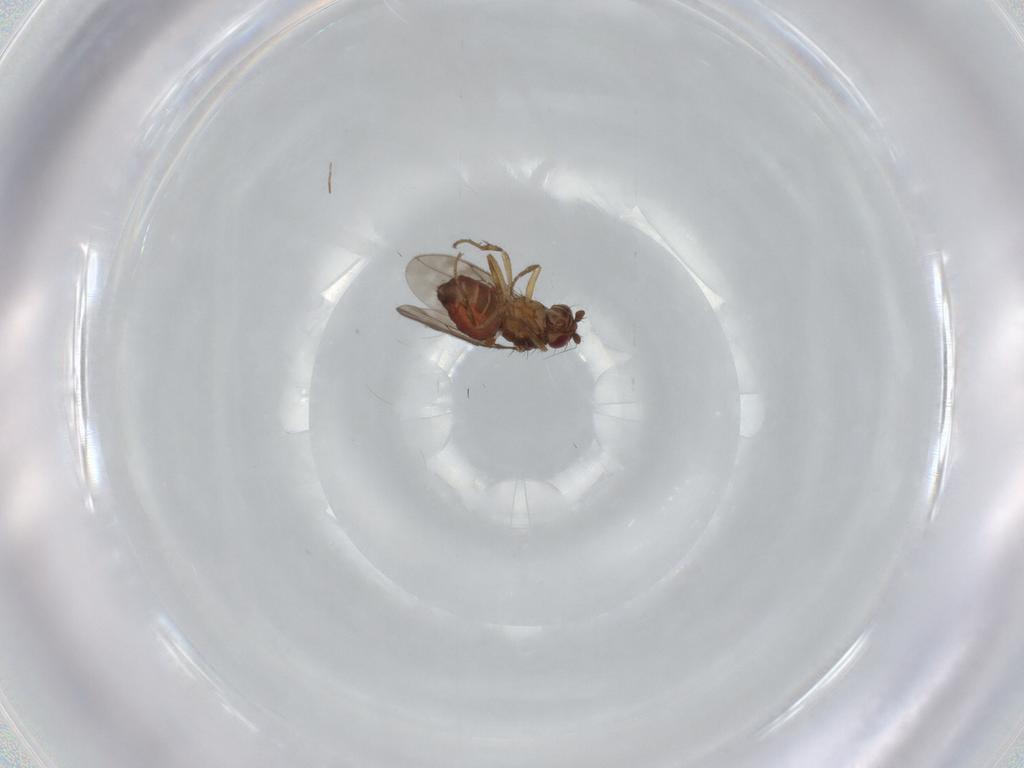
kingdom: Animalia
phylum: Arthropoda
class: Insecta
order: Diptera
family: Sphaeroceridae
